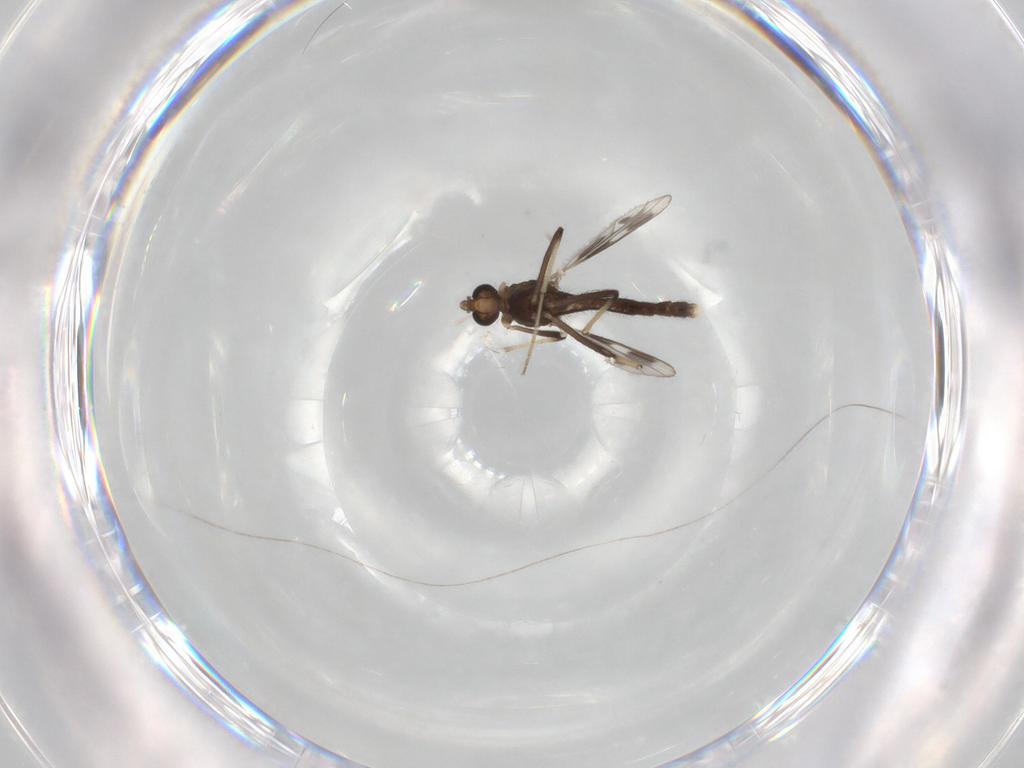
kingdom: Animalia
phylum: Arthropoda
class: Insecta
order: Diptera
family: Chironomidae
